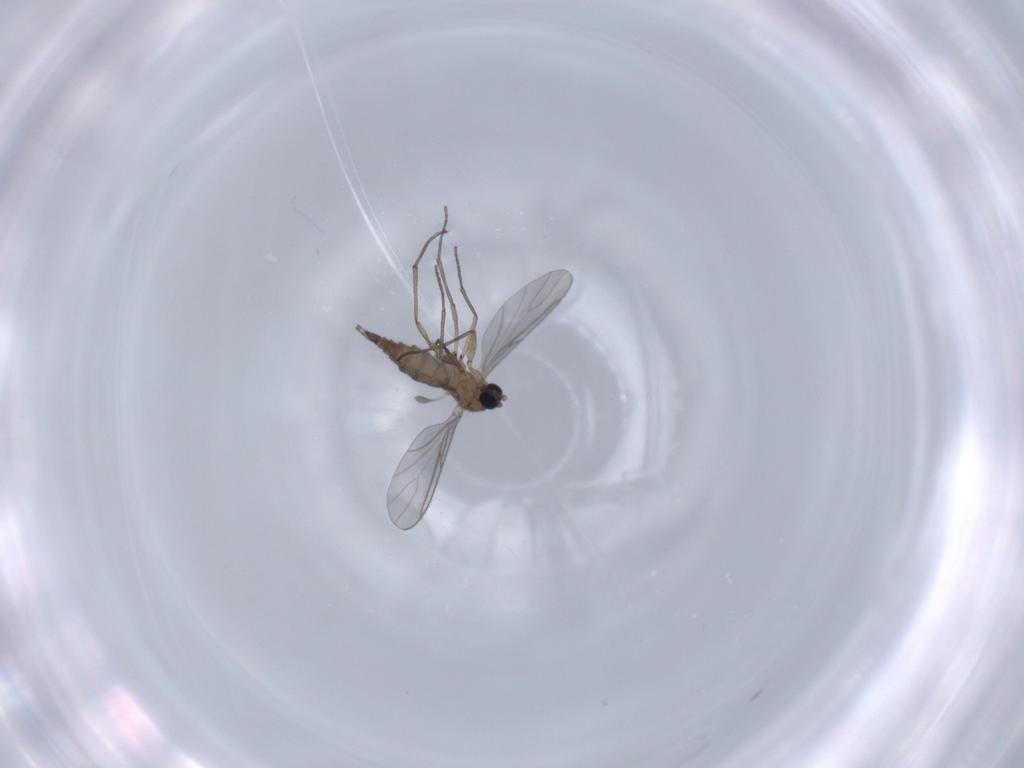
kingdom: Animalia
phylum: Arthropoda
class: Insecta
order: Diptera
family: Sciaridae
